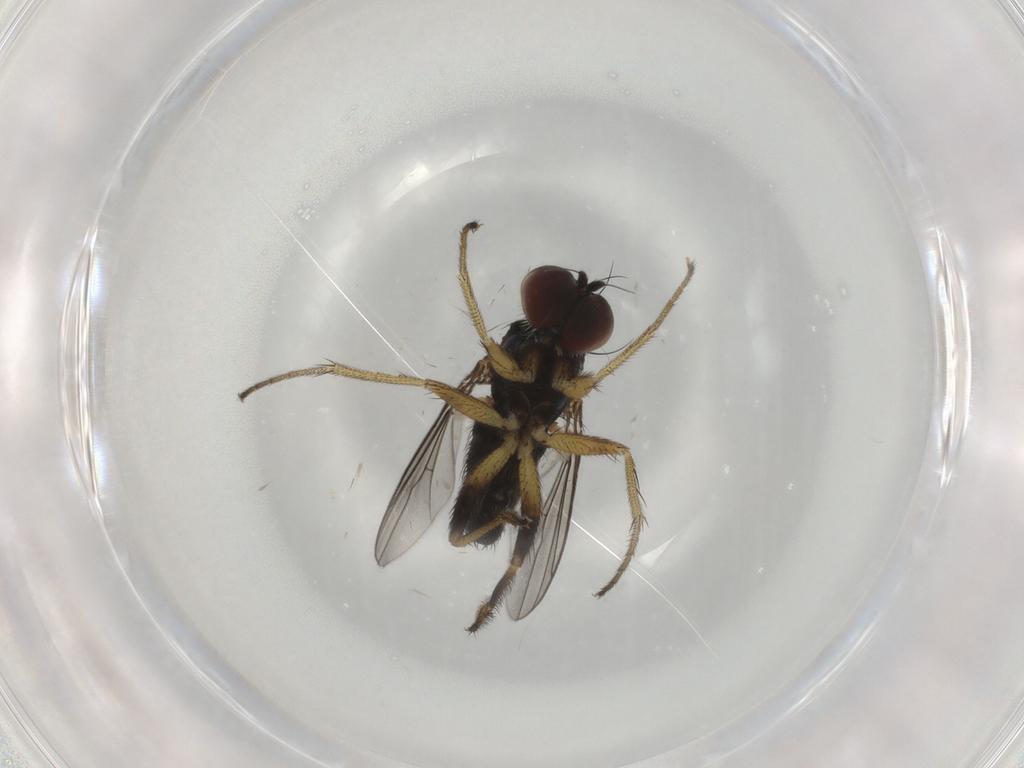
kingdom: Animalia
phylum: Arthropoda
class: Insecta
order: Diptera
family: Dolichopodidae
